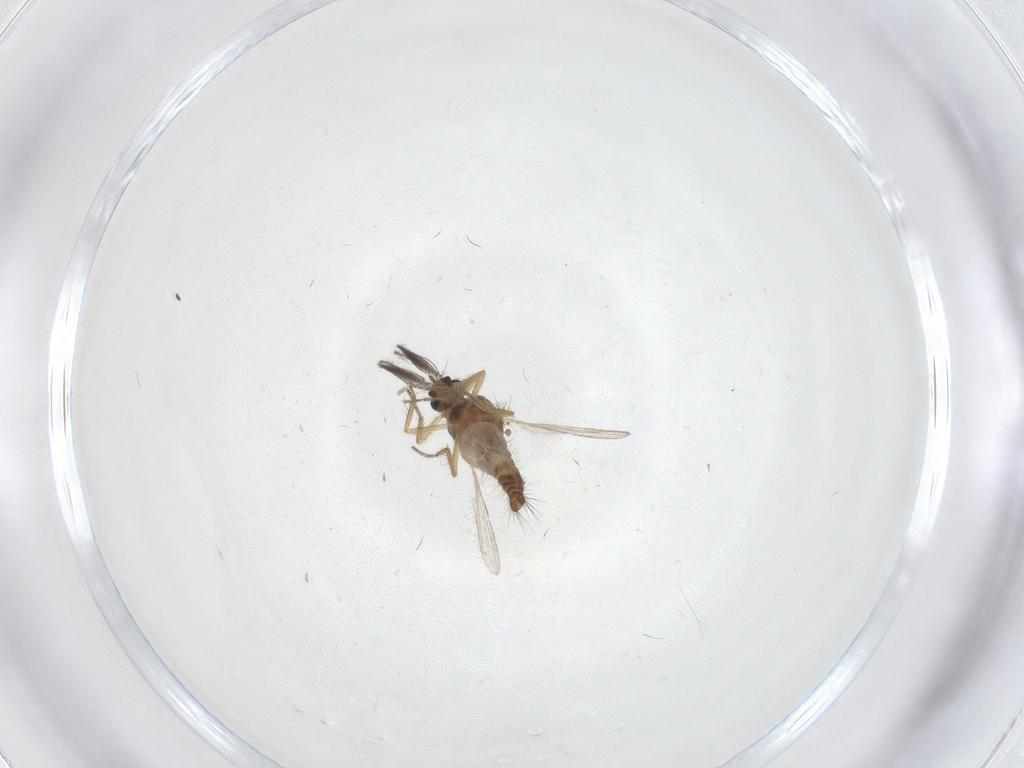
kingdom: Animalia
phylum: Arthropoda
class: Insecta
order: Diptera
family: Ceratopogonidae
